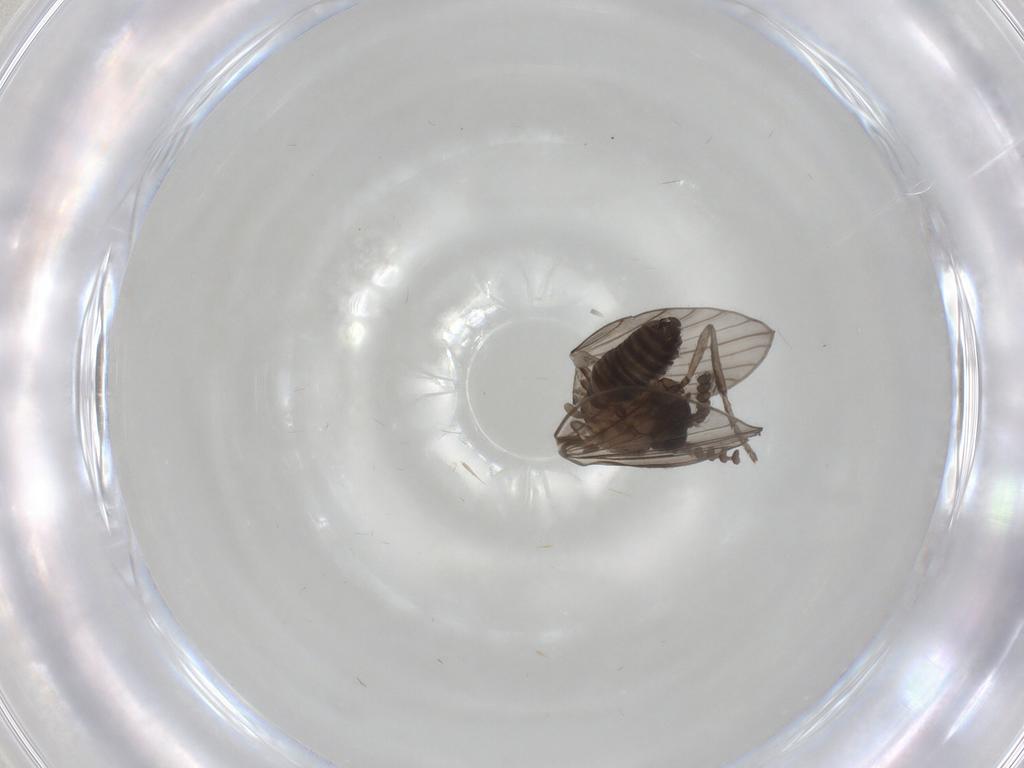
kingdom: Animalia
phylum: Arthropoda
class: Insecta
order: Diptera
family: Psychodidae
